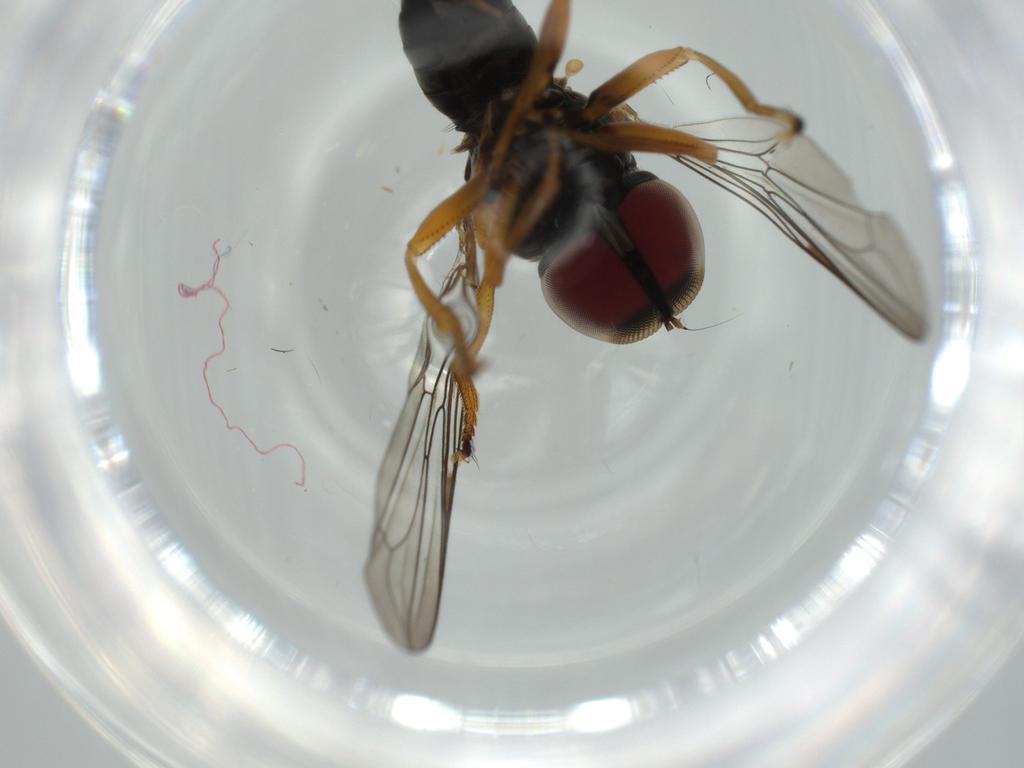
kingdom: Animalia
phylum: Arthropoda
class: Insecta
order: Diptera
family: Sciaridae
